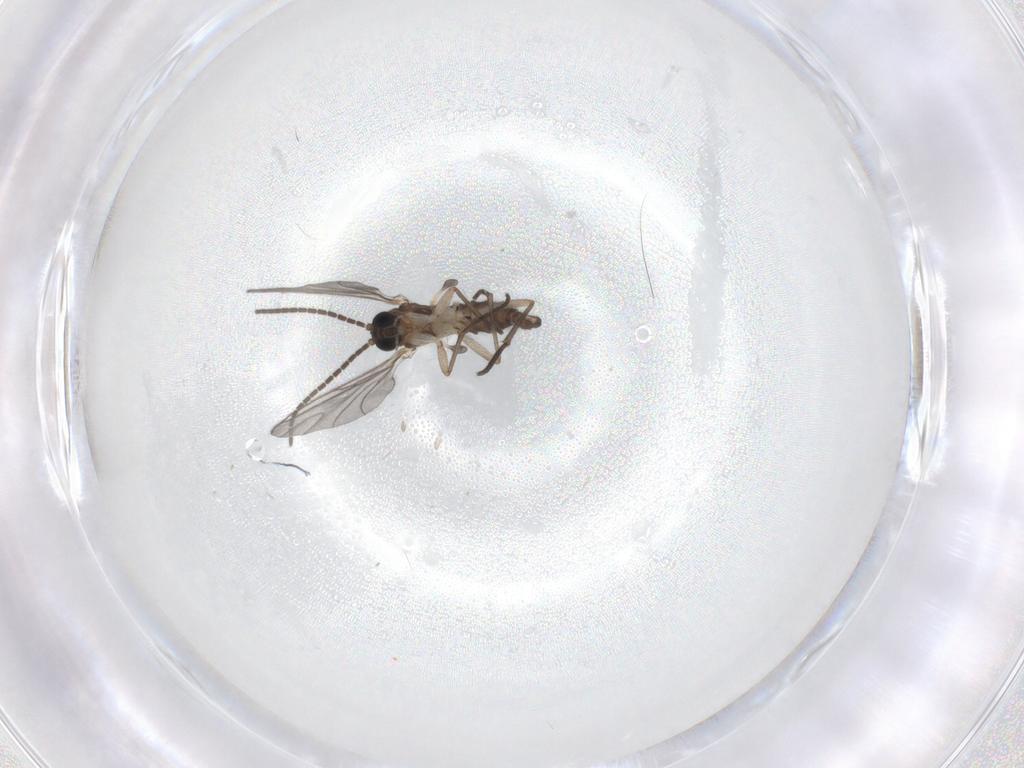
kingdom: Animalia
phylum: Arthropoda
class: Insecta
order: Diptera
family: Sciaridae
